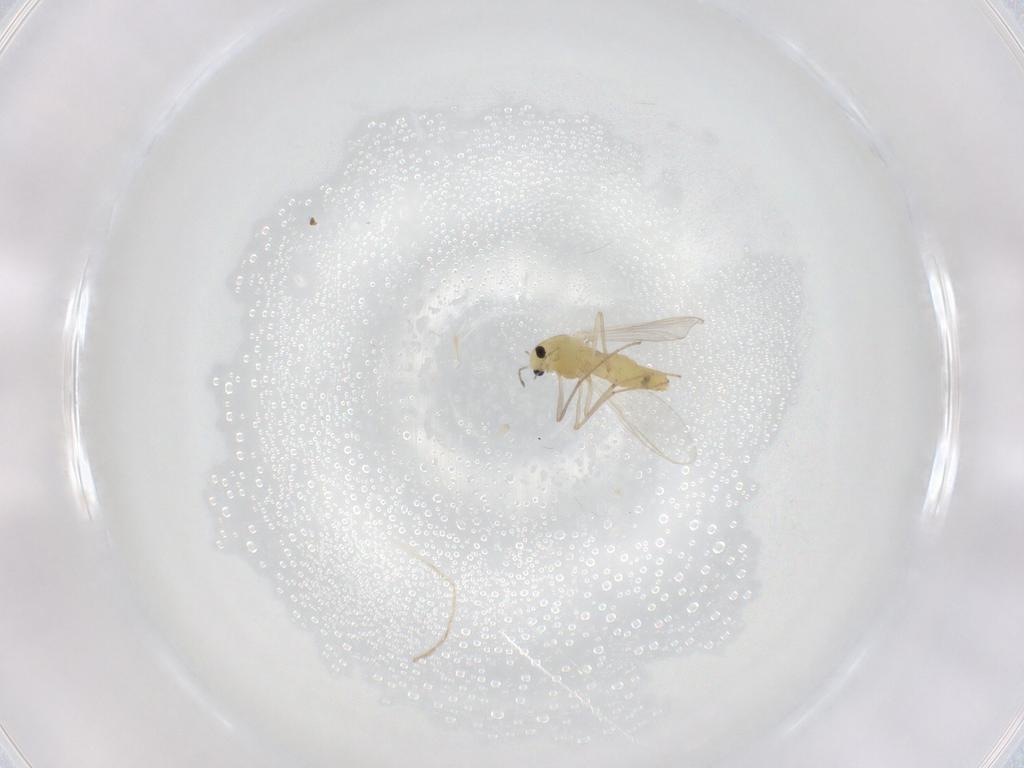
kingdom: Animalia
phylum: Arthropoda
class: Insecta
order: Diptera
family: Chironomidae
